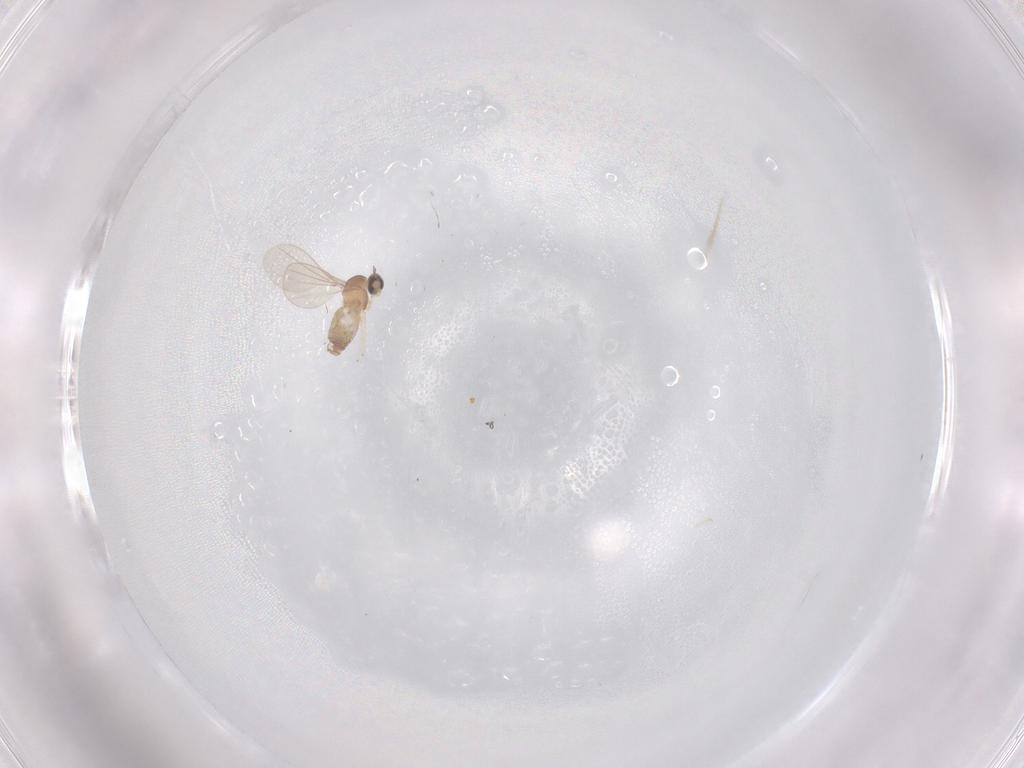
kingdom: Animalia
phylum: Arthropoda
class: Insecta
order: Diptera
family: Cecidomyiidae
